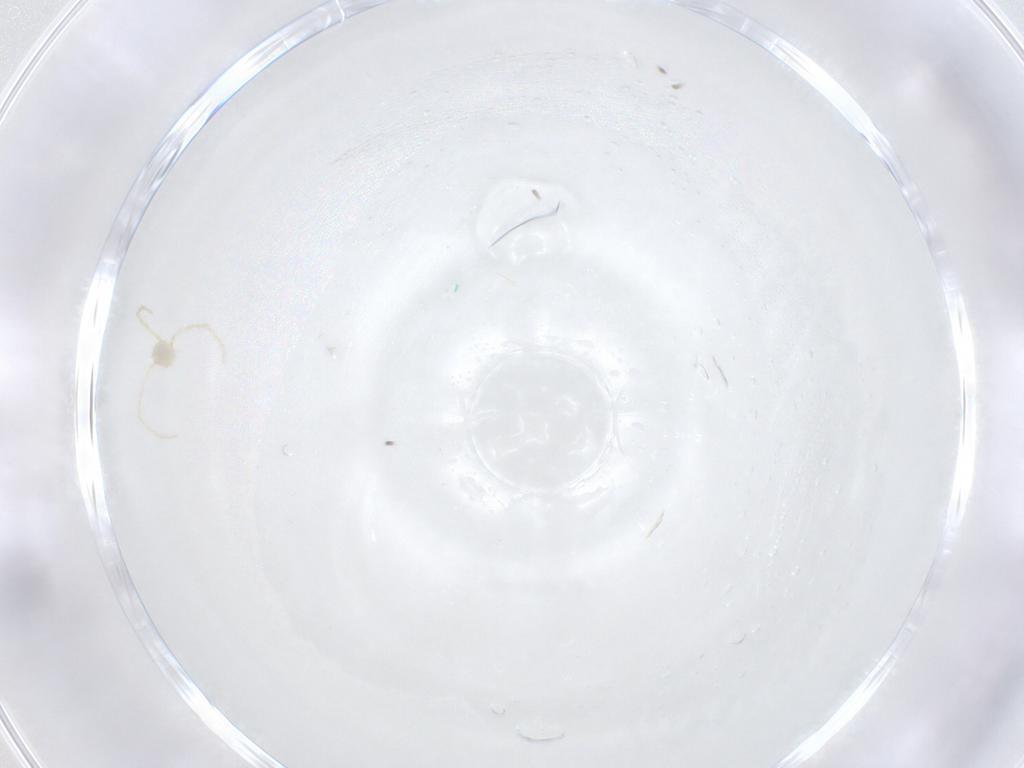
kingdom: Animalia
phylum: Arthropoda
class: Arachnida
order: Trombidiformes
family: Erythraeidae
